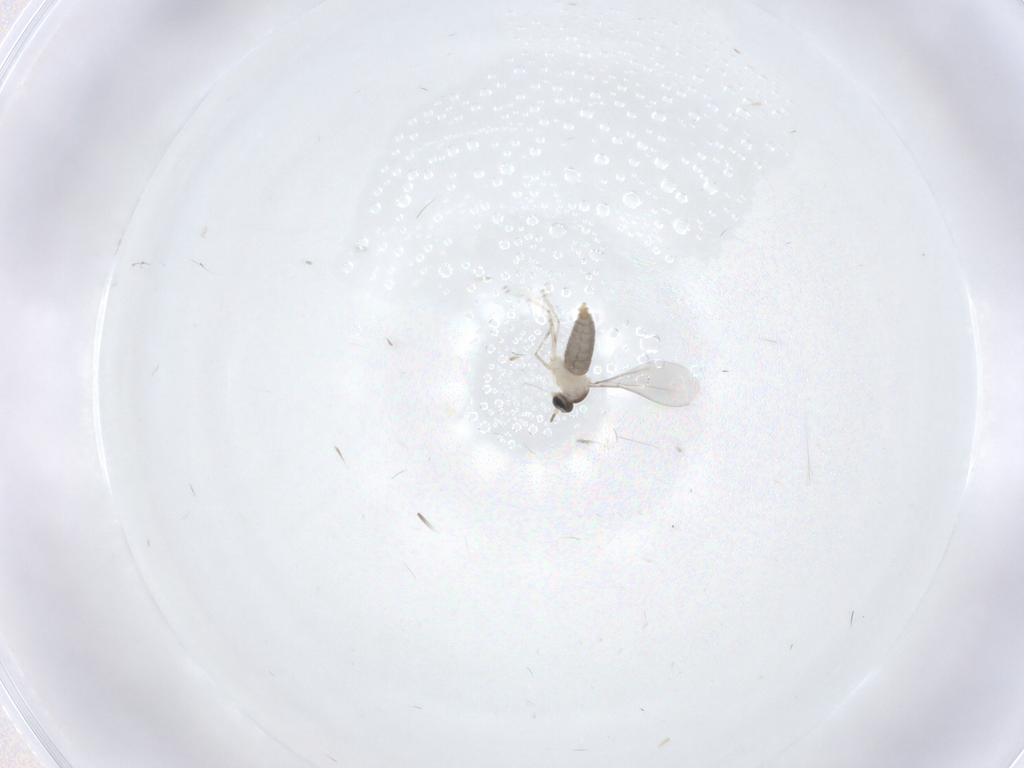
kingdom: Animalia
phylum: Arthropoda
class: Insecta
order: Diptera
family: Cecidomyiidae
